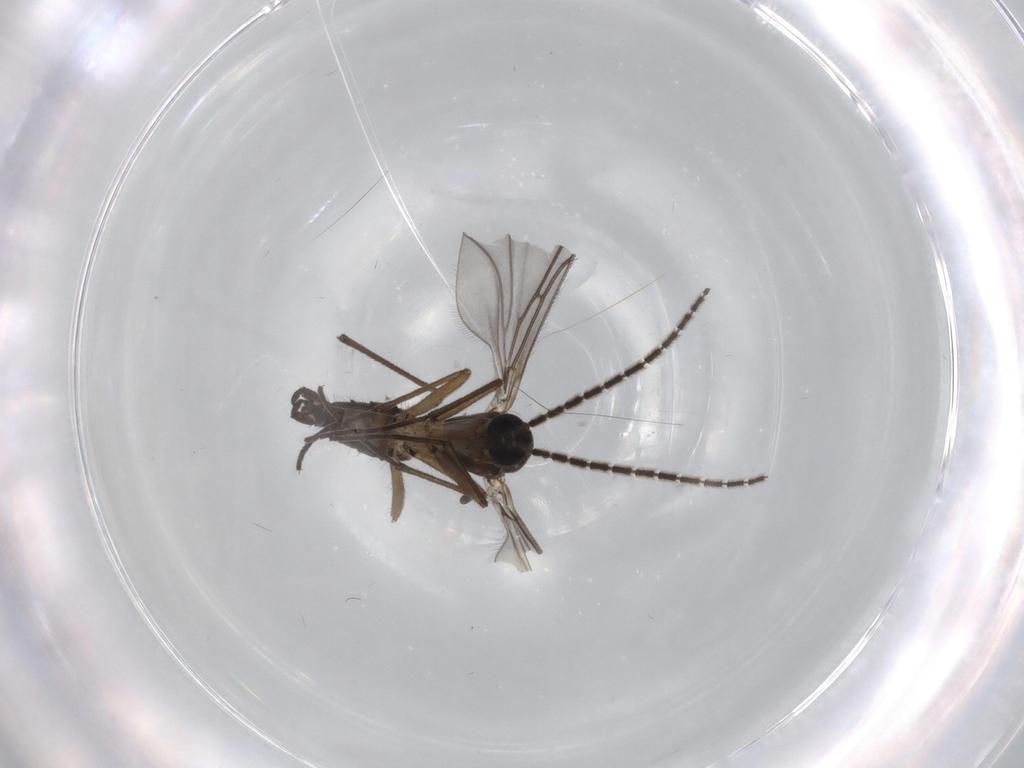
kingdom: Animalia
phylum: Arthropoda
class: Insecta
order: Diptera
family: Sciaridae
